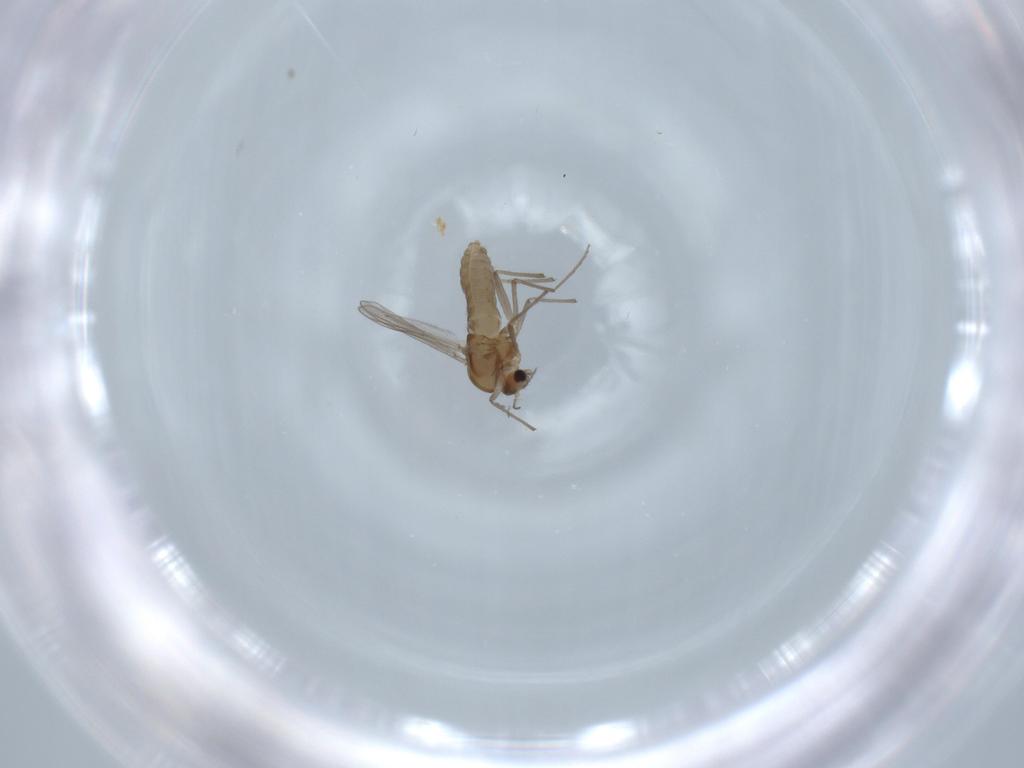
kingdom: Animalia
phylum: Arthropoda
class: Insecta
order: Diptera
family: Chironomidae
